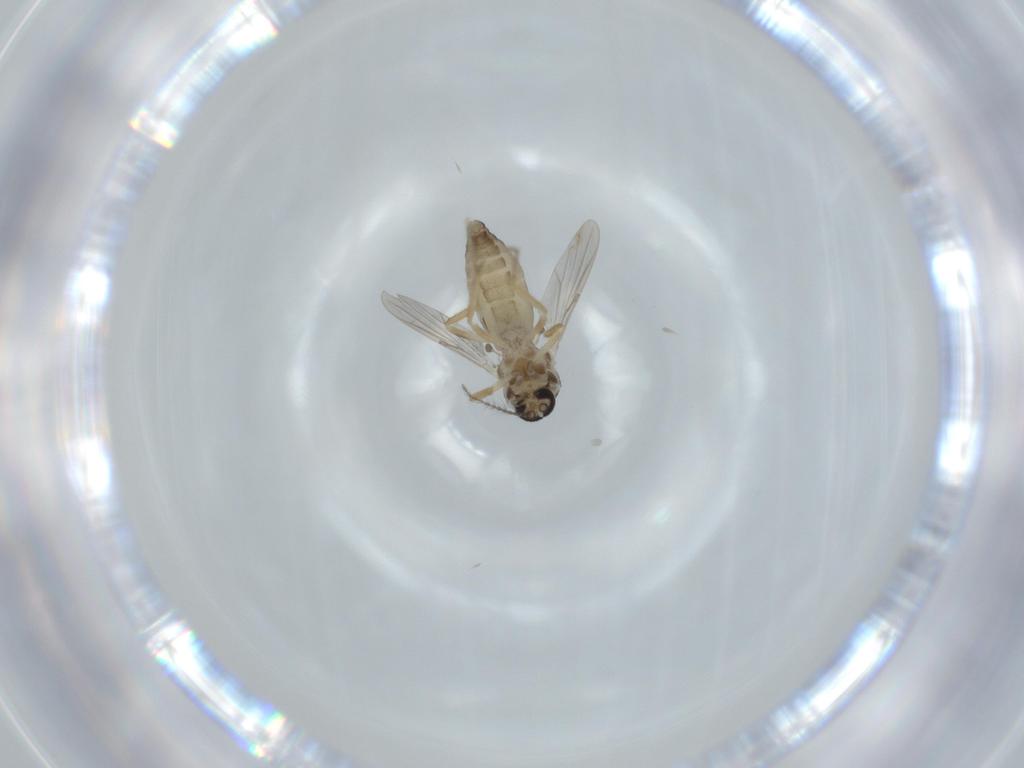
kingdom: Animalia
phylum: Arthropoda
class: Insecta
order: Diptera
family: Ceratopogonidae
